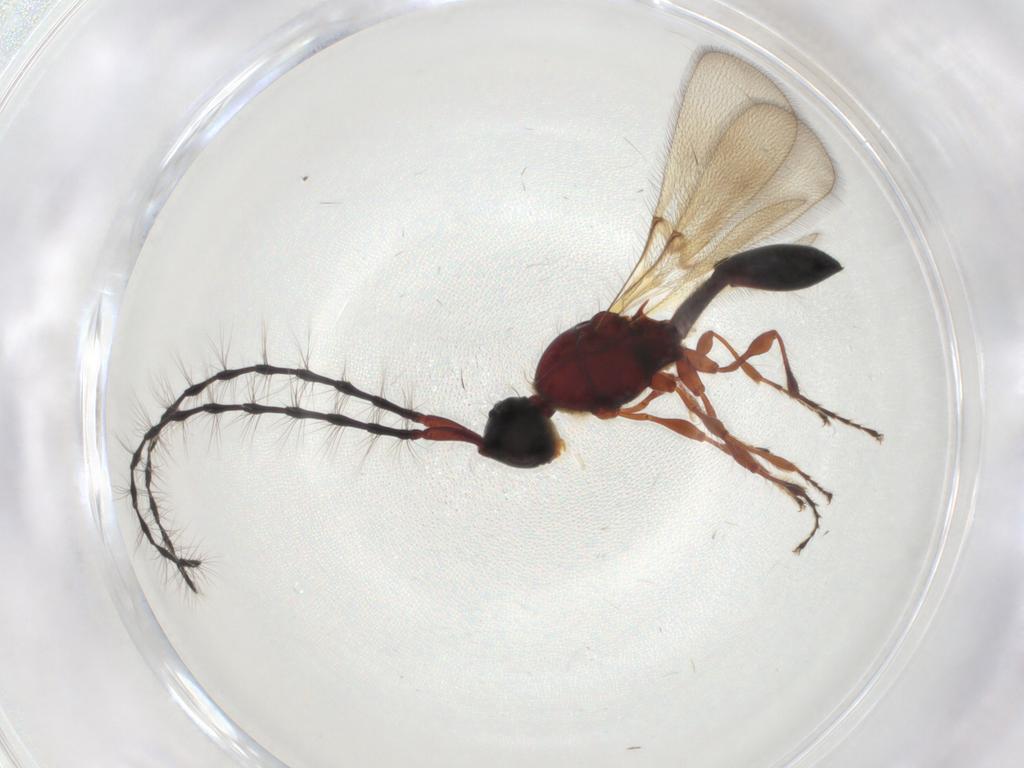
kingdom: Animalia
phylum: Arthropoda
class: Insecta
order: Hymenoptera
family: Diapriidae
